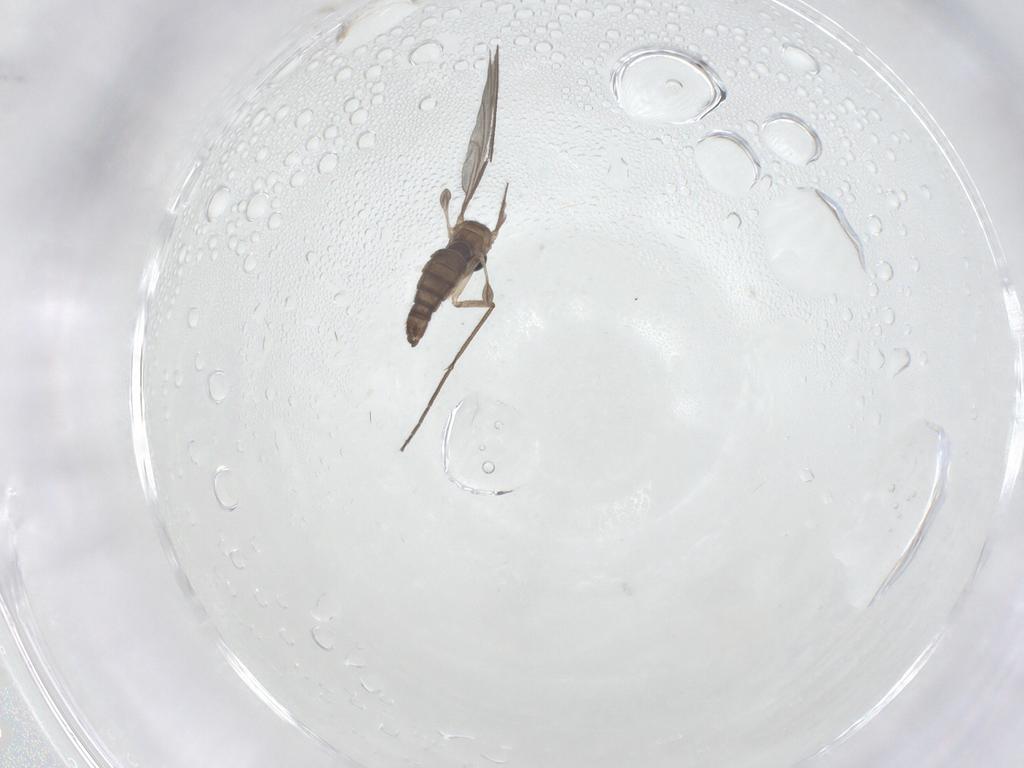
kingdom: Animalia
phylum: Arthropoda
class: Insecta
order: Diptera
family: Sciaridae
